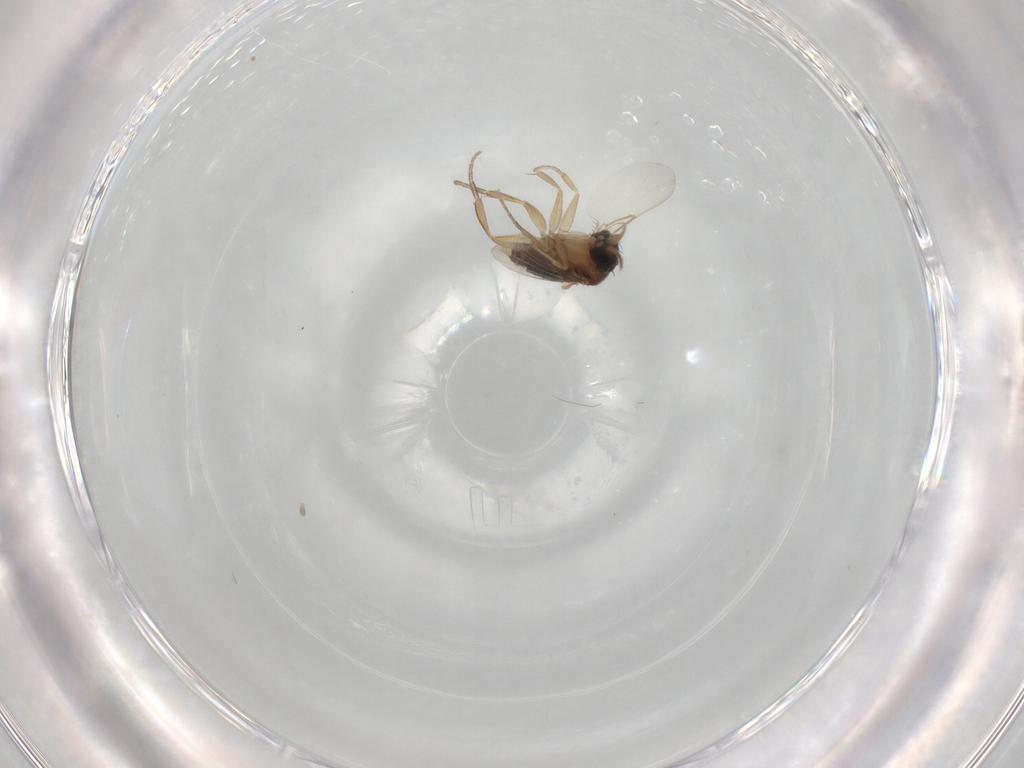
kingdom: Animalia
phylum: Arthropoda
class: Insecta
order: Diptera
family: Phoridae
